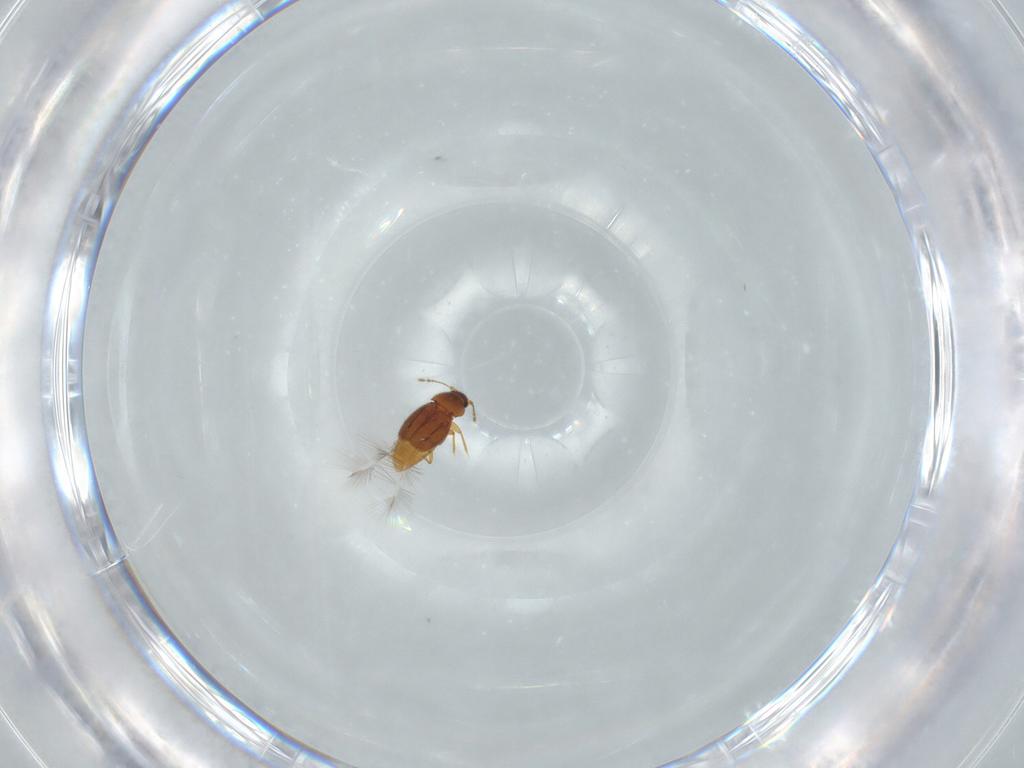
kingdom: Animalia
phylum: Arthropoda
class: Insecta
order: Coleoptera
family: Ptiliidae
